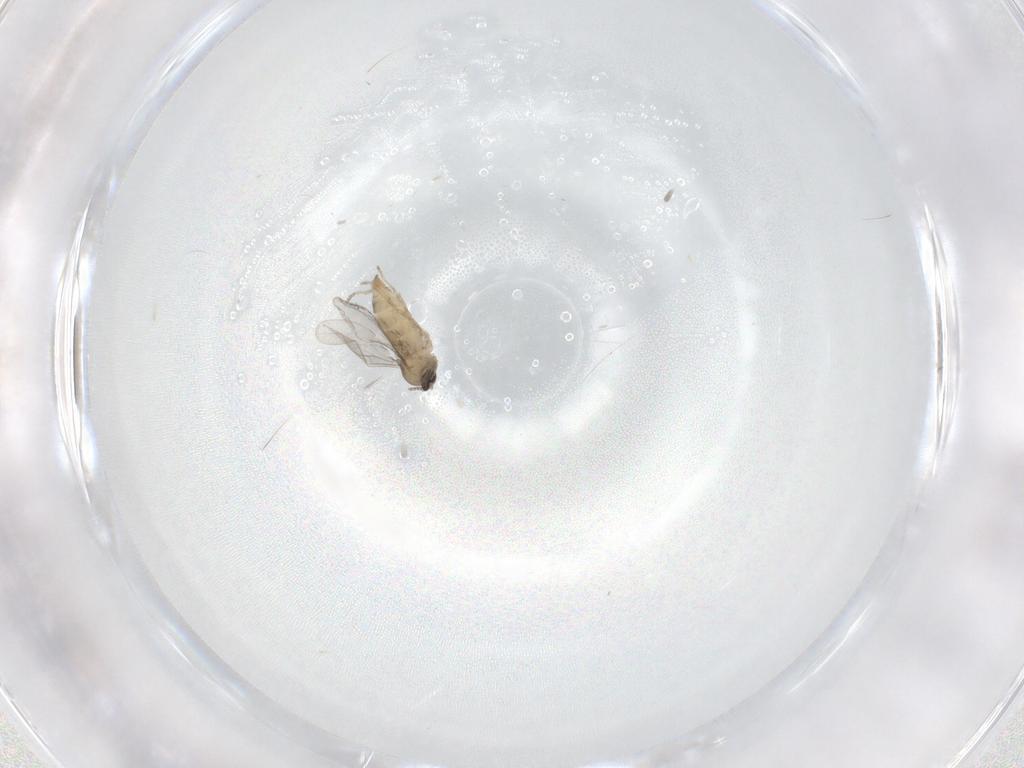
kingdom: Animalia
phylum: Arthropoda
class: Insecta
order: Diptera
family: Cecidomyiidae
